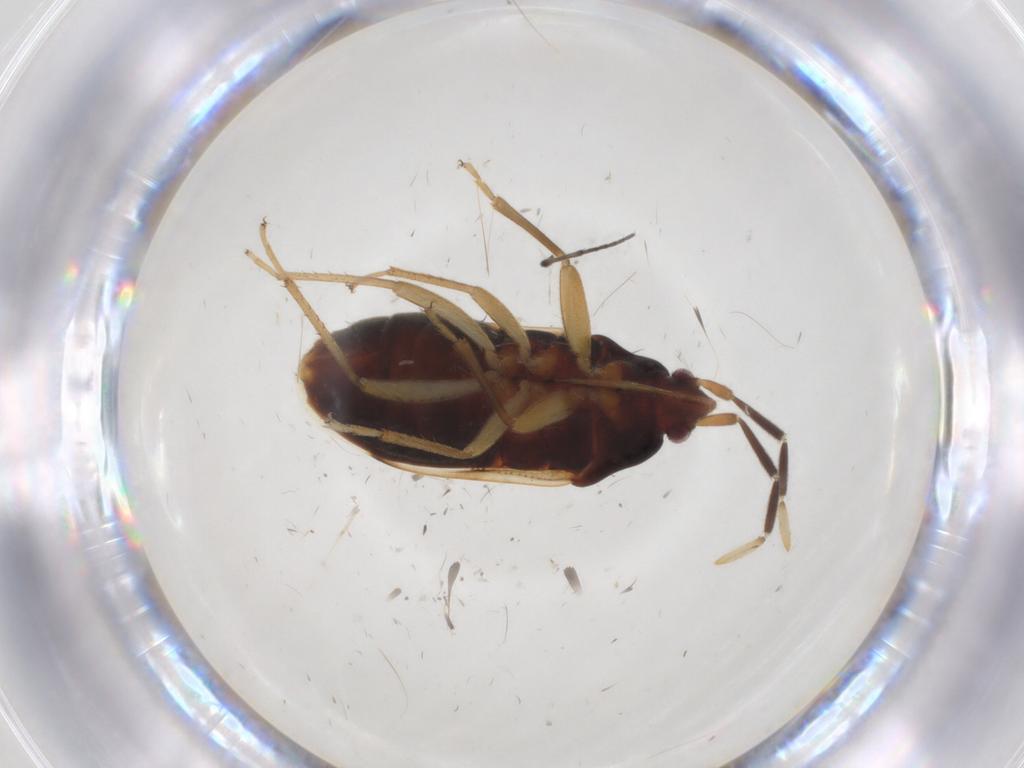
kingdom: Animalia
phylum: Arthropoda
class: Insecta
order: Hemiptera
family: Rhyparochromidae
